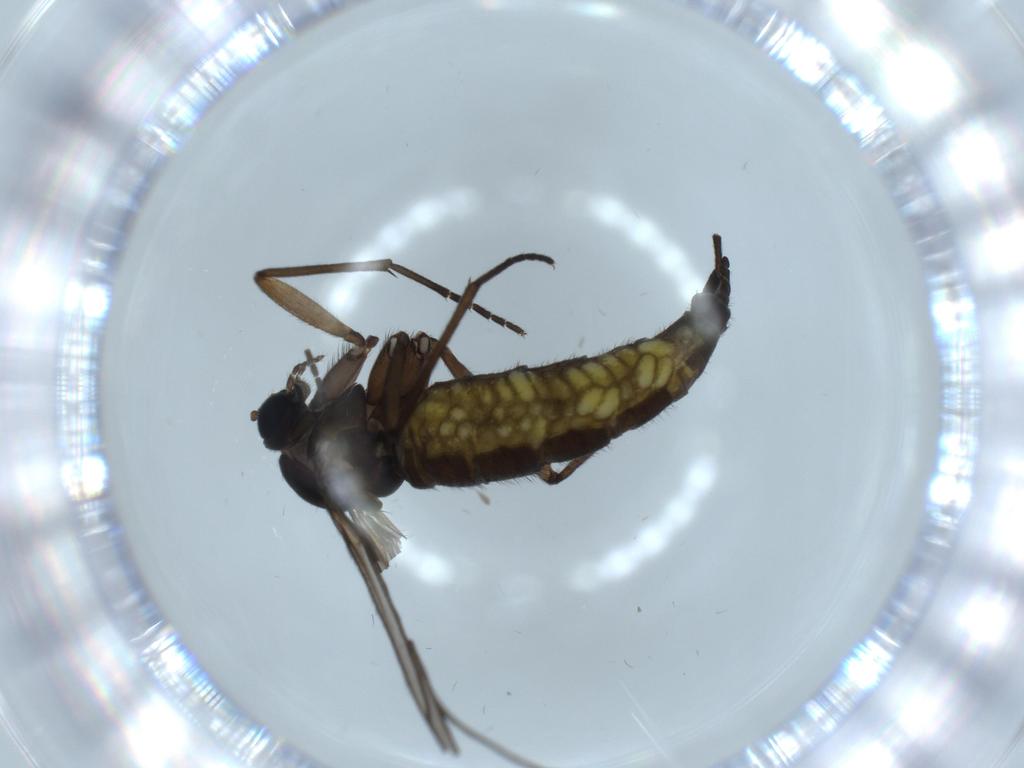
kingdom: Animalia
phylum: Arthropoda
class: Insecta
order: Diptera
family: Sciaridae
